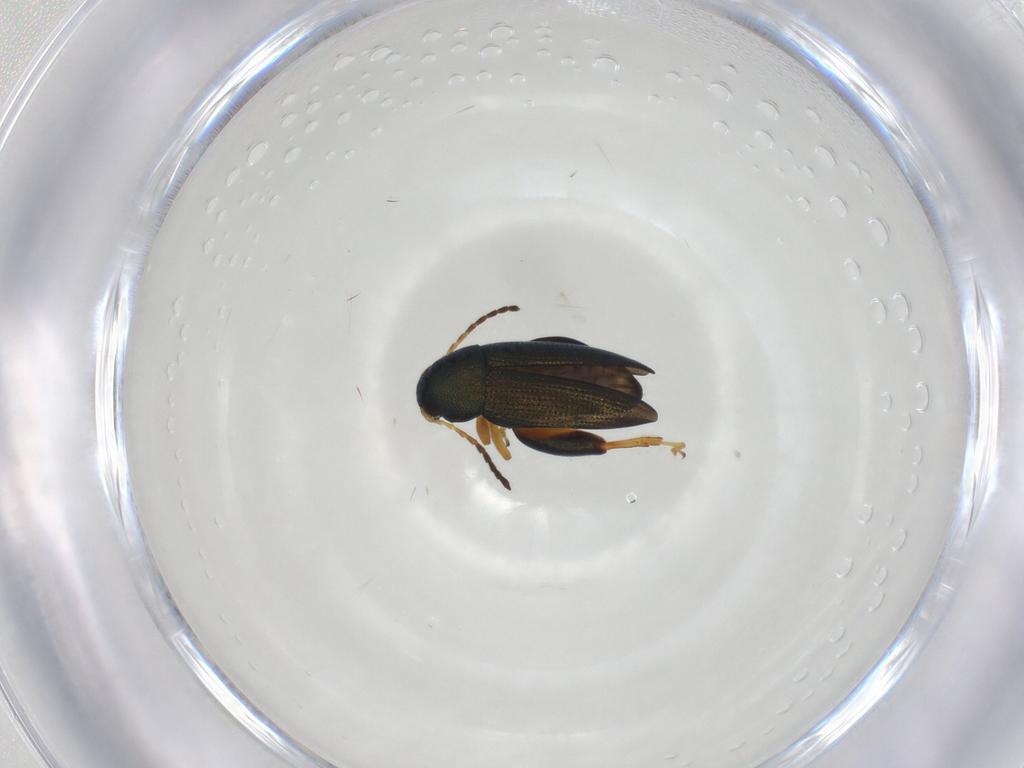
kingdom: Animalia
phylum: Arthropoda
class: Insecta
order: Coleoptera
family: Chrysomelidae
